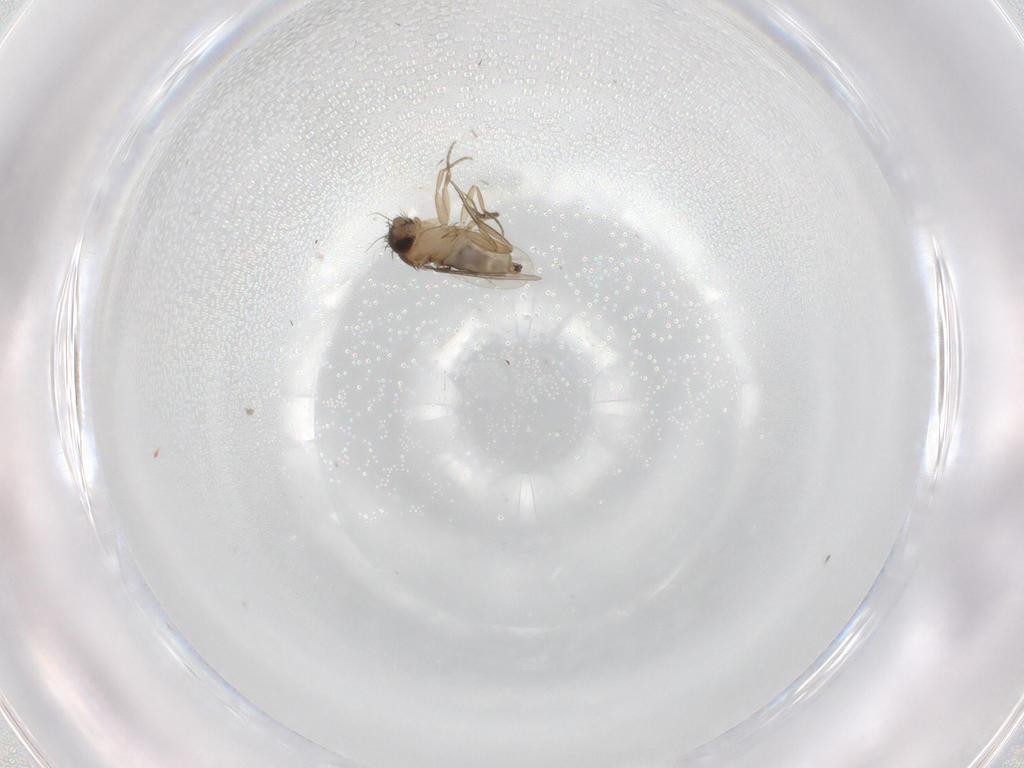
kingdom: Animalia
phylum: Arthropoda
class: Insecta
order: Diptera
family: Phoridae
